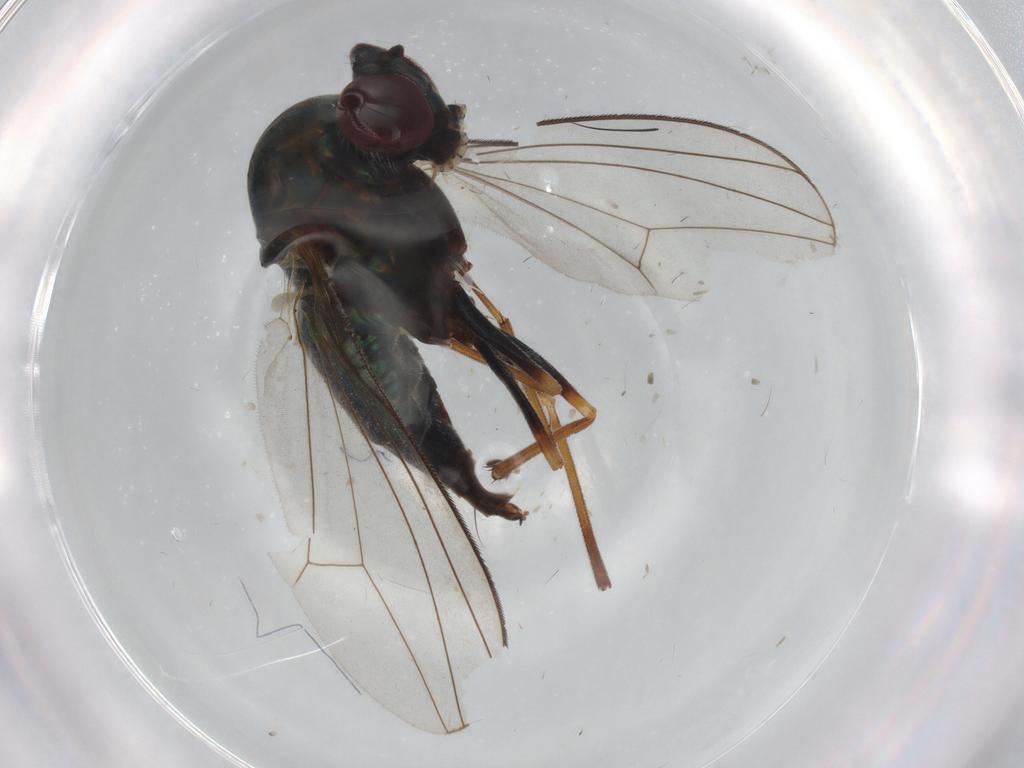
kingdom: Animalia
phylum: Arthropoda
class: Insecta
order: Diptera
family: Dolichopodidae
